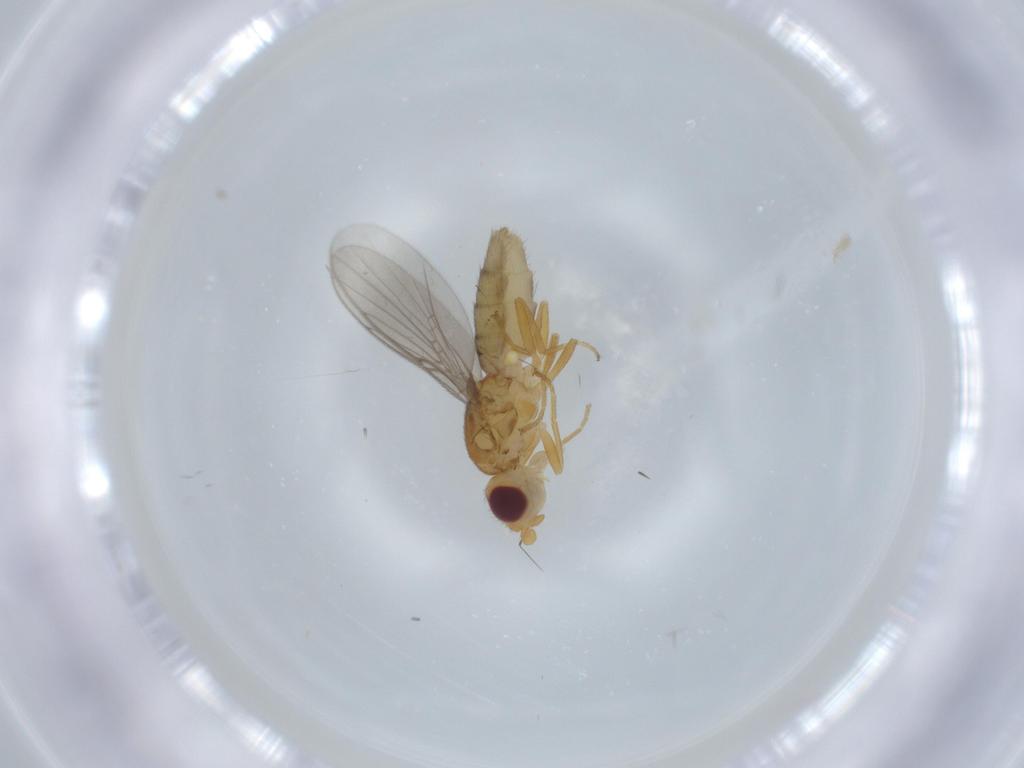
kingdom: Animalia
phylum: Arthropoda
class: Insecta
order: Diptera
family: Chloropidae
